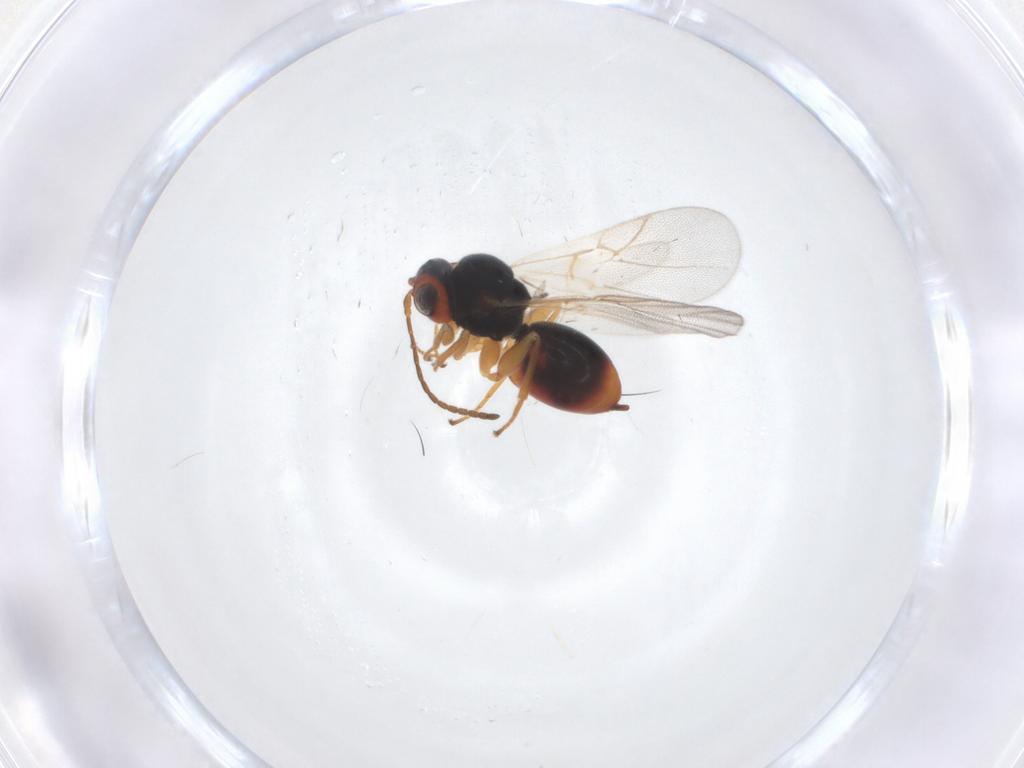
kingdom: Animalia
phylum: Arthropoda
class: Insecta
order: Hymenoptera
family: Cynipidae
